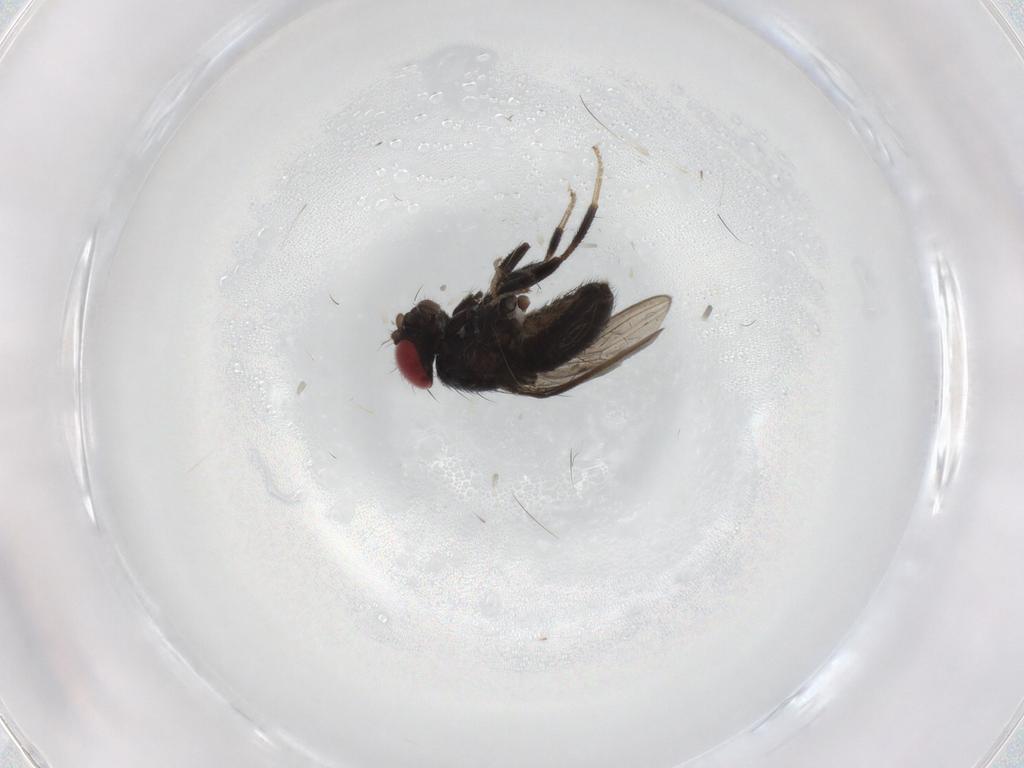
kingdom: Animalia
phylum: Arthropoda
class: Insecta
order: Diptera
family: Drosophilidae
